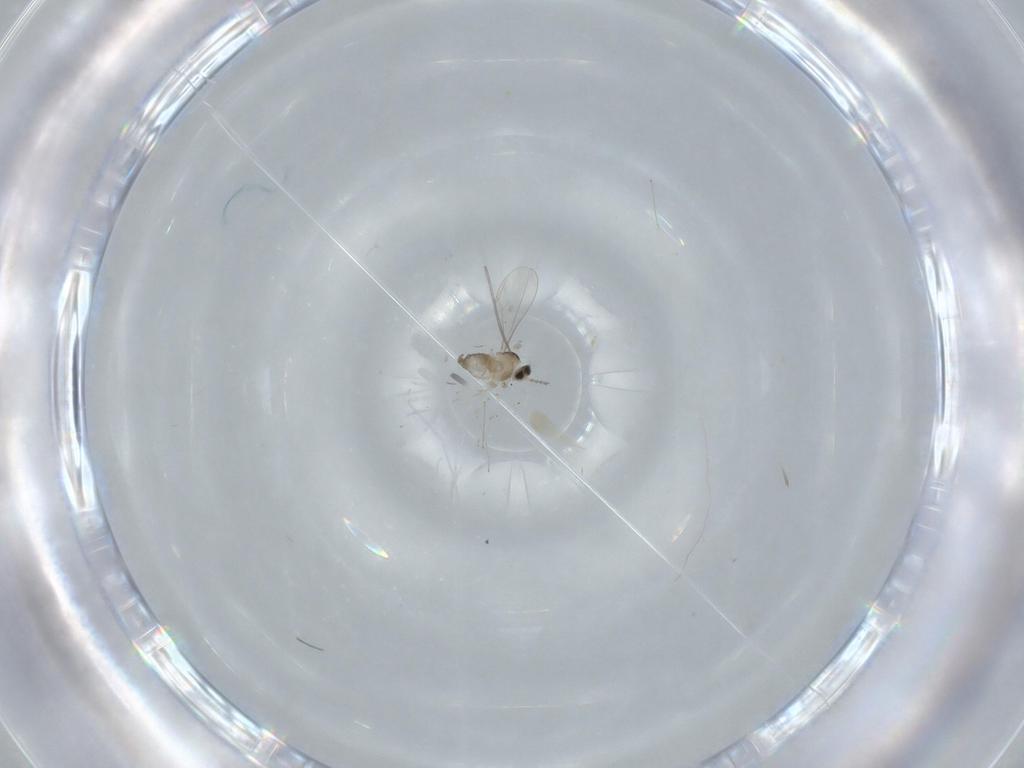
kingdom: Animalia
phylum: Arthropoda
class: Insecta
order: Diptera
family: Cecidomyiidae
